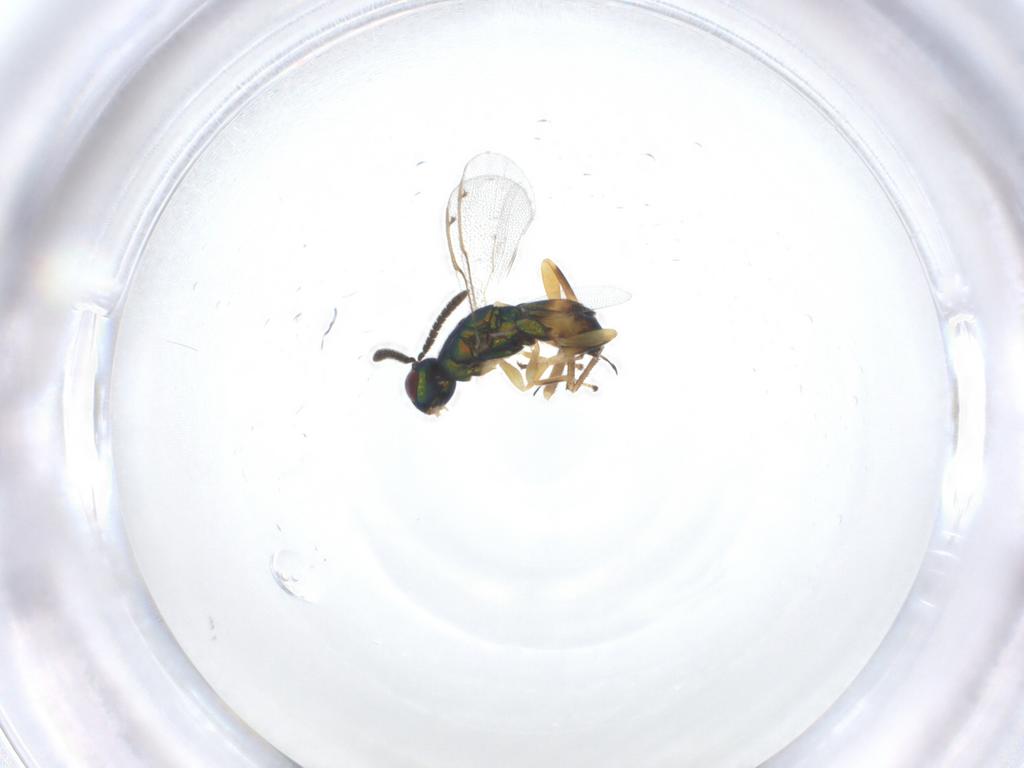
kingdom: Animalia
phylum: Arthropoda
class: Insecta
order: Hymenoptera
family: Torymidae
